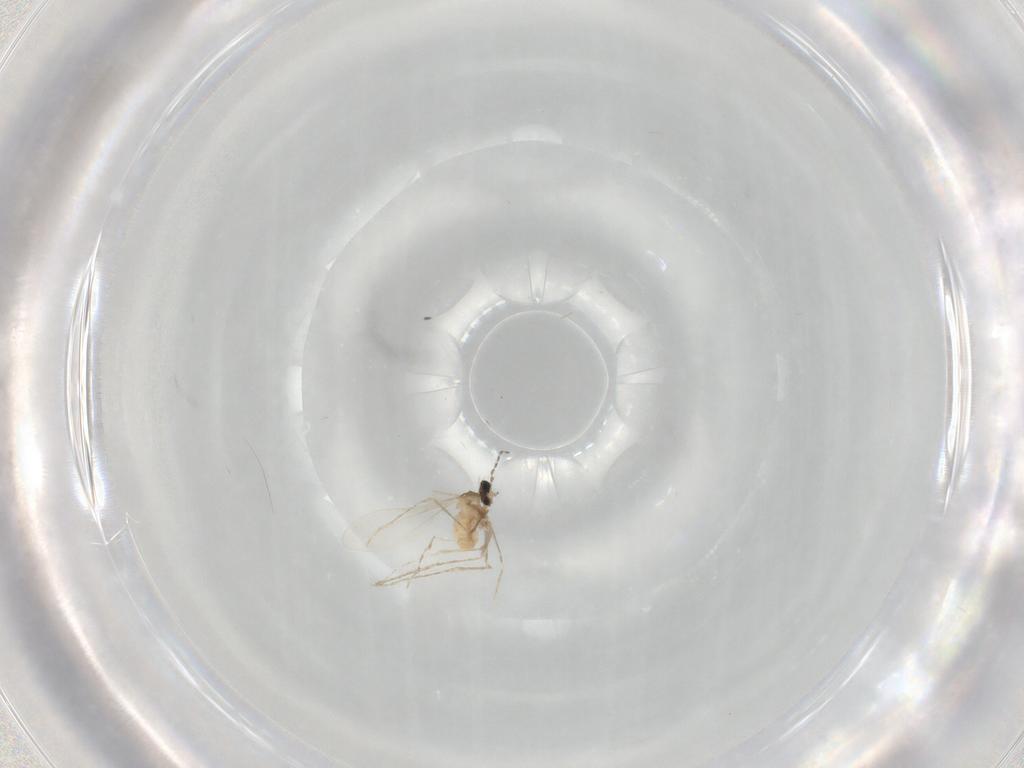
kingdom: Animalia
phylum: Arthropoda
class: Insecta
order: Diptera
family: Cecidomyiidae
